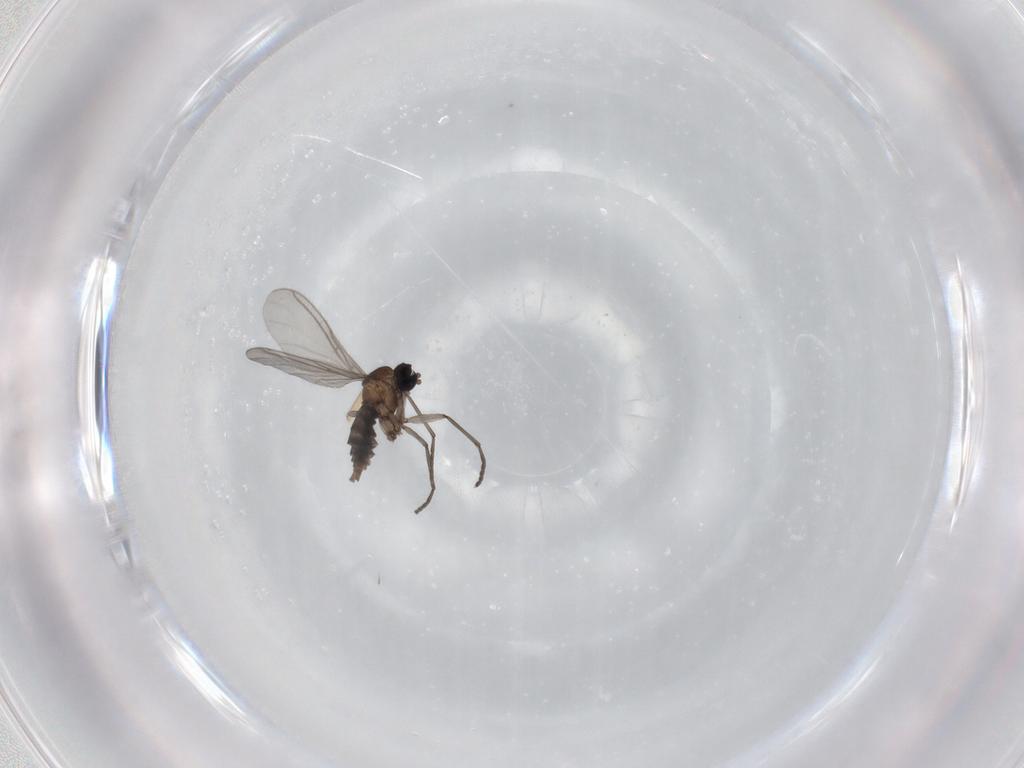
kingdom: Animalia
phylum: Arthropoda
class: Insecta
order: Diptera
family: Sciaridae
